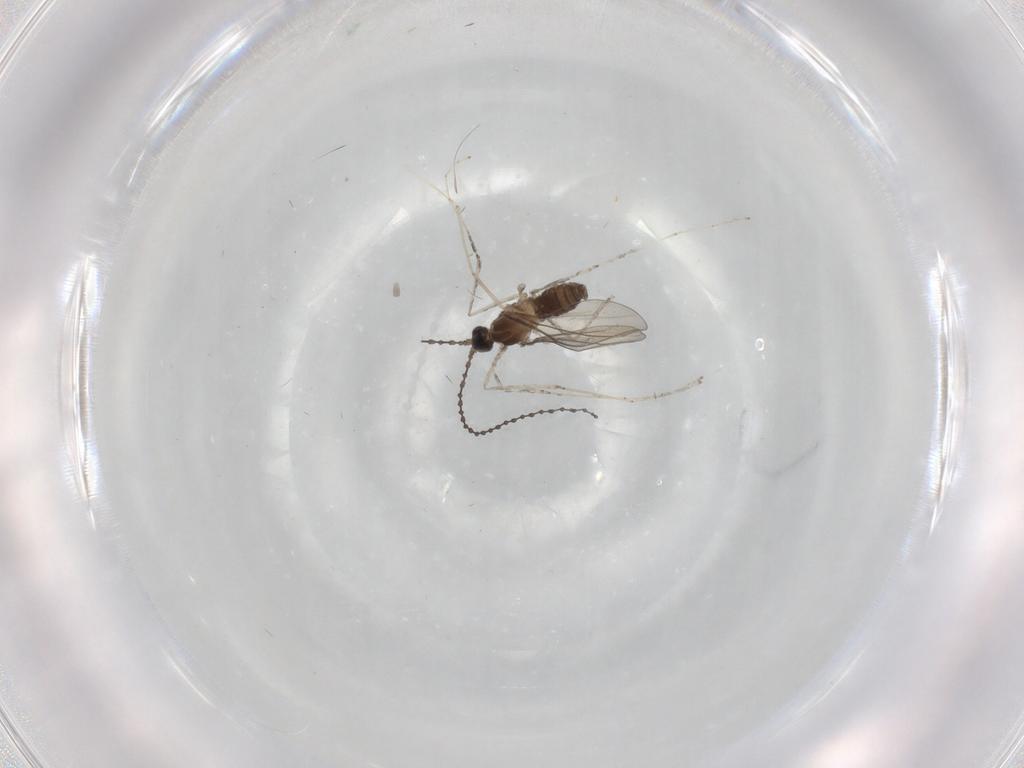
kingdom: Animalia
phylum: Arthropoda
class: Insecta
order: Diptera
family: Cecidomyiidae
